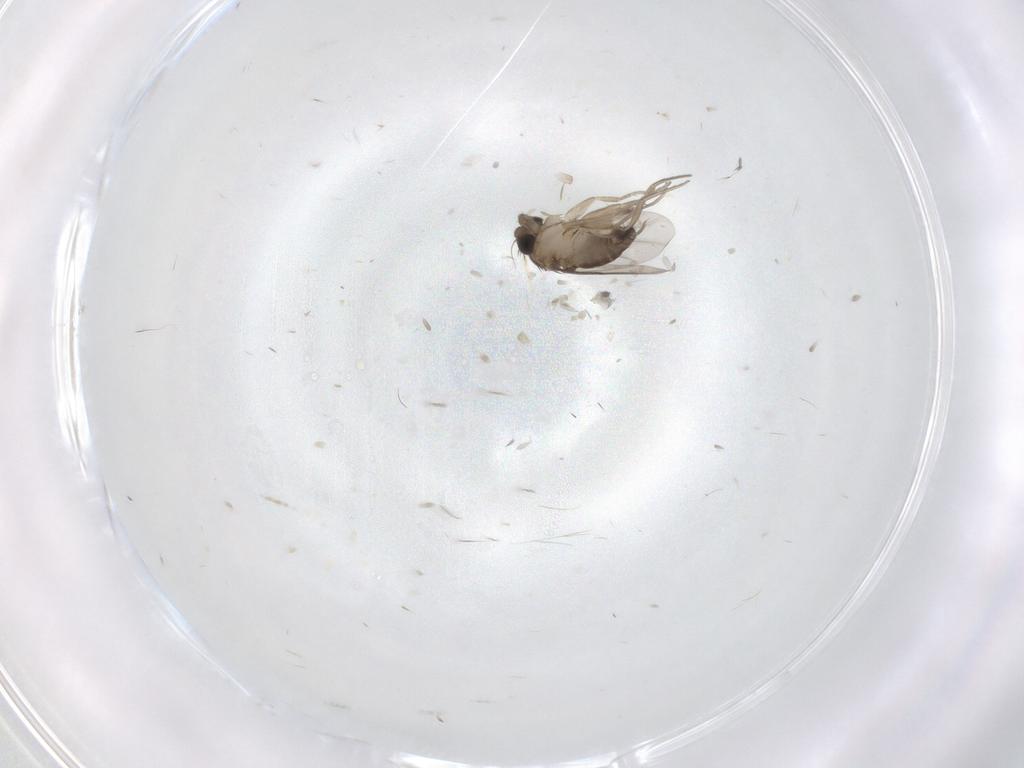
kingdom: Animalia
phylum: Arthropoda
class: Insecta
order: Diptera
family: Phoridae
